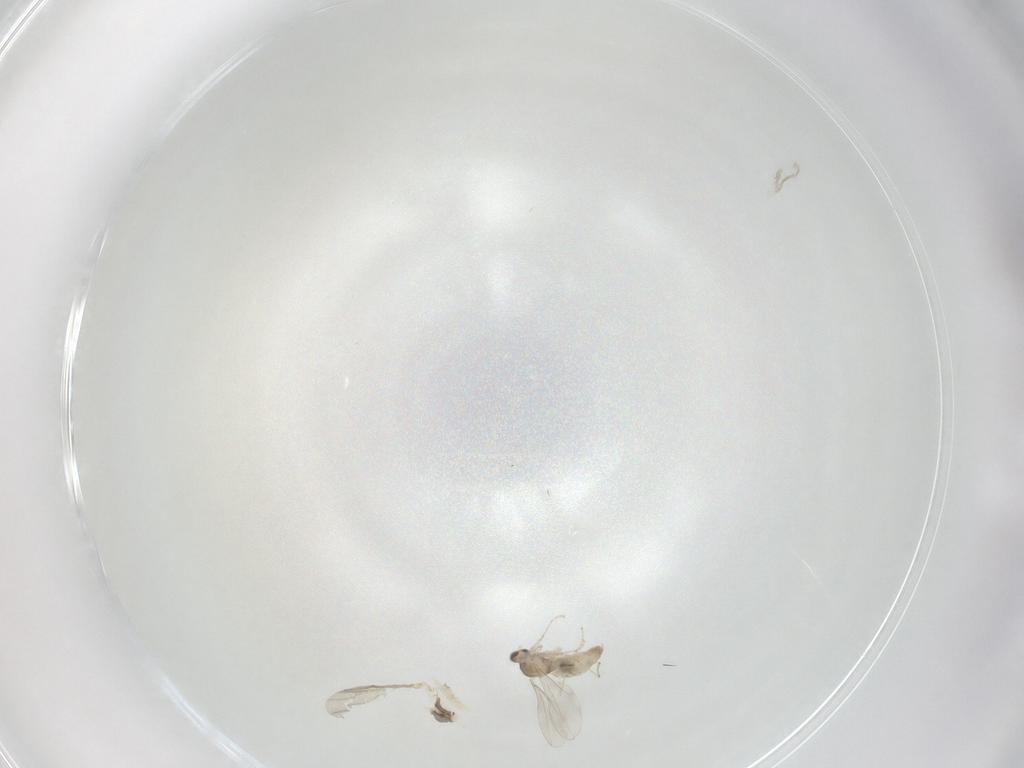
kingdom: Animalia
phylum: Arthropoda
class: Insecta
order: Diptera
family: Cecidomyiidae
